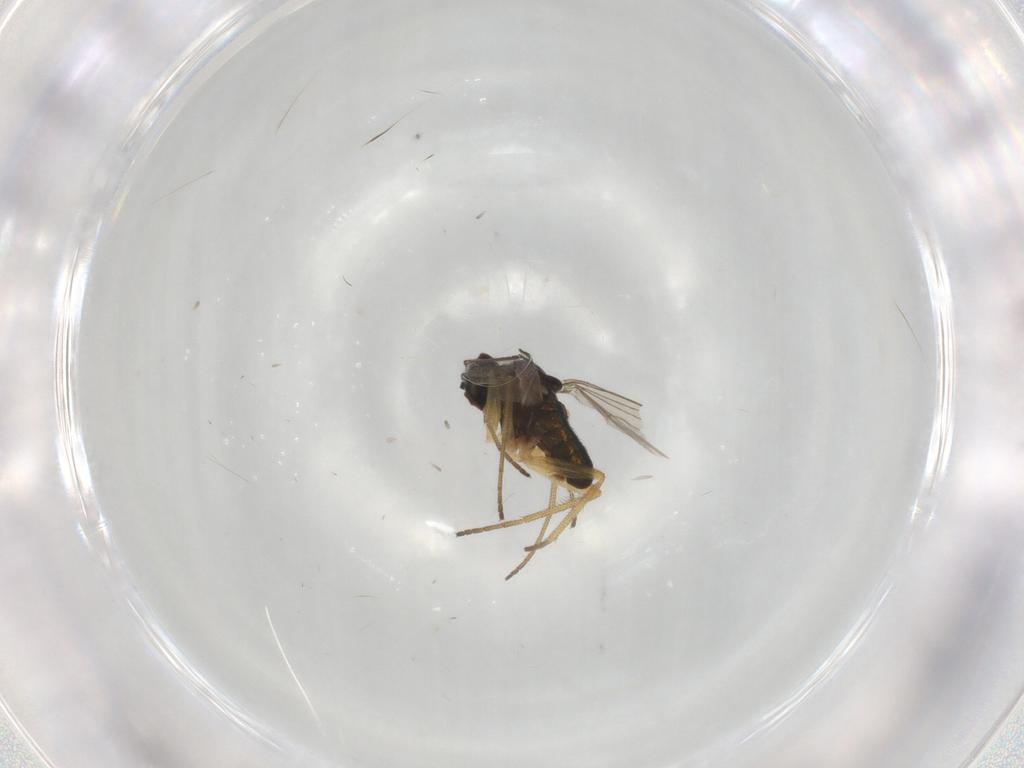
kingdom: Animalia
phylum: Arthropoda
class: Insecta
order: Diptera
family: Dolichopodidae
